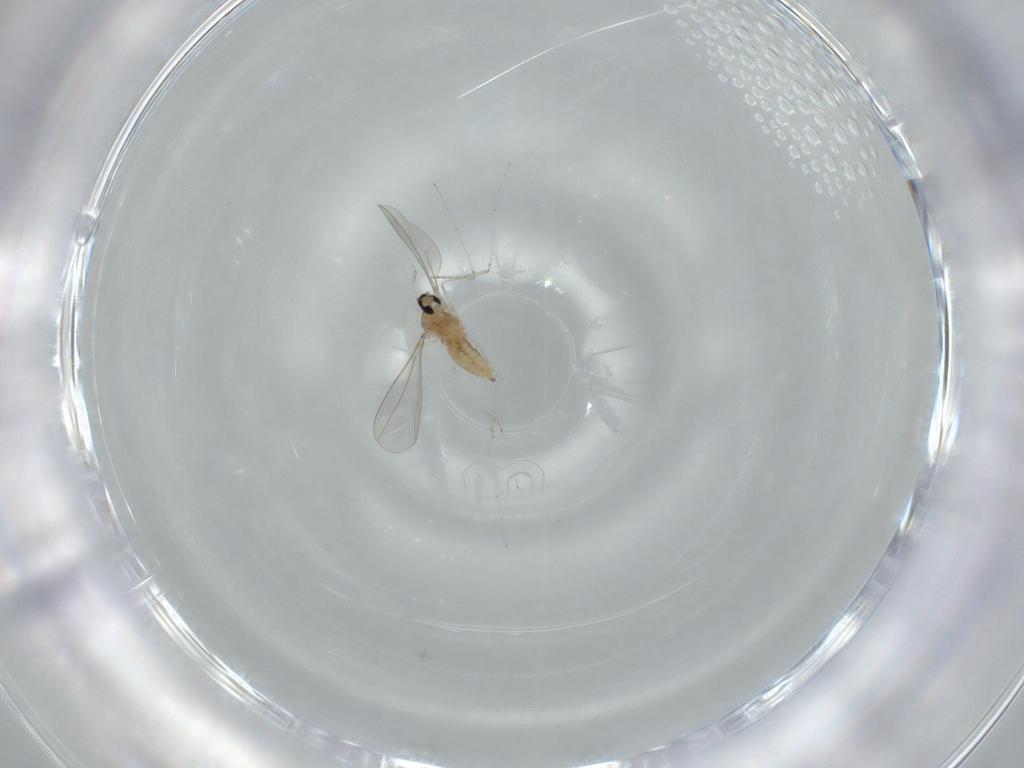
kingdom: Animalia
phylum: Arthropoda
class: Insecta
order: Diptera
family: Cecidomyiidae
